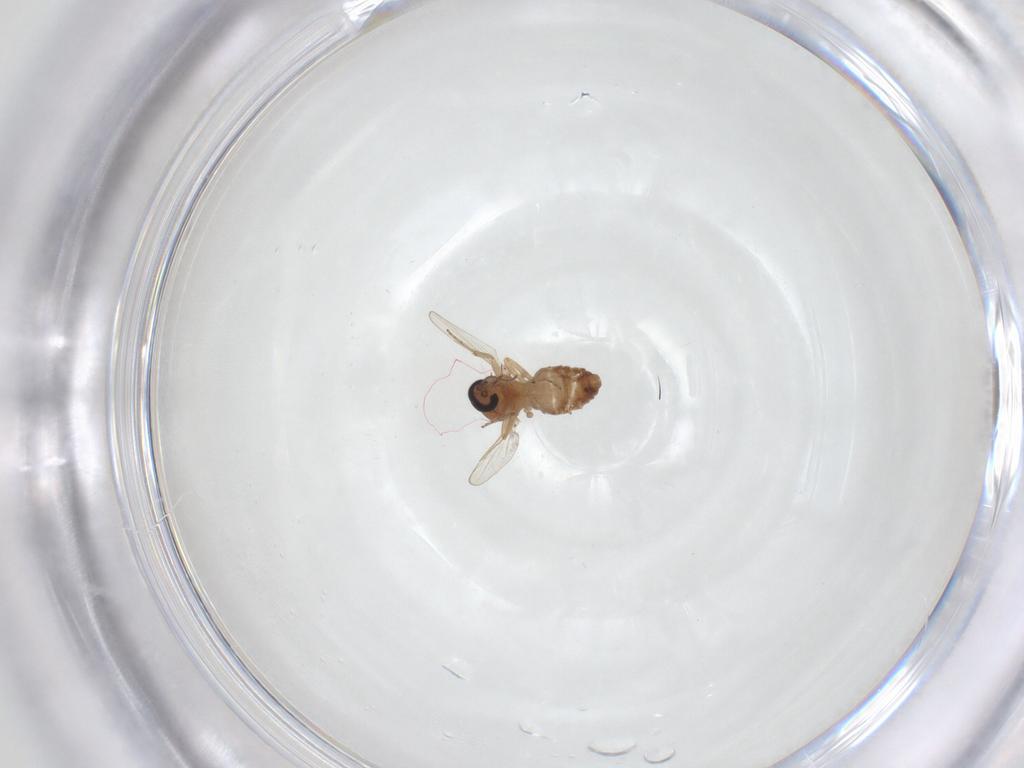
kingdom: Animalia
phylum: Arthropoda
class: Insecta
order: Diptera
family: Ceratopogonidae
